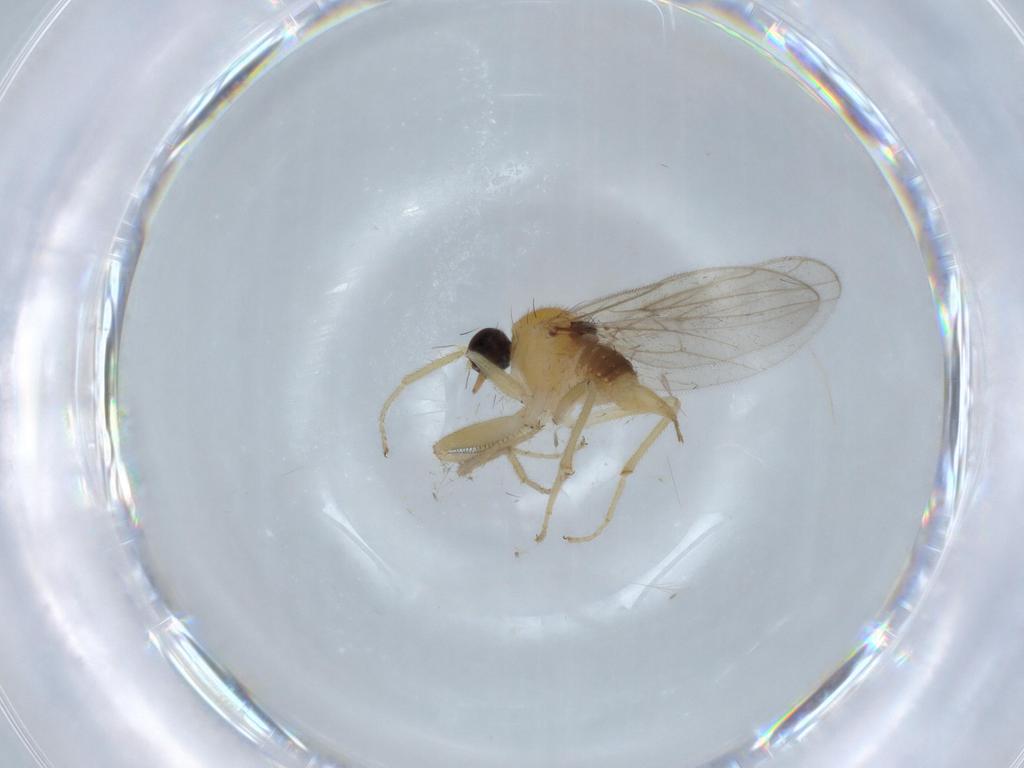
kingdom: Animalia
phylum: Arthropoda
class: Insecta
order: Diptera
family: Hybotidae
